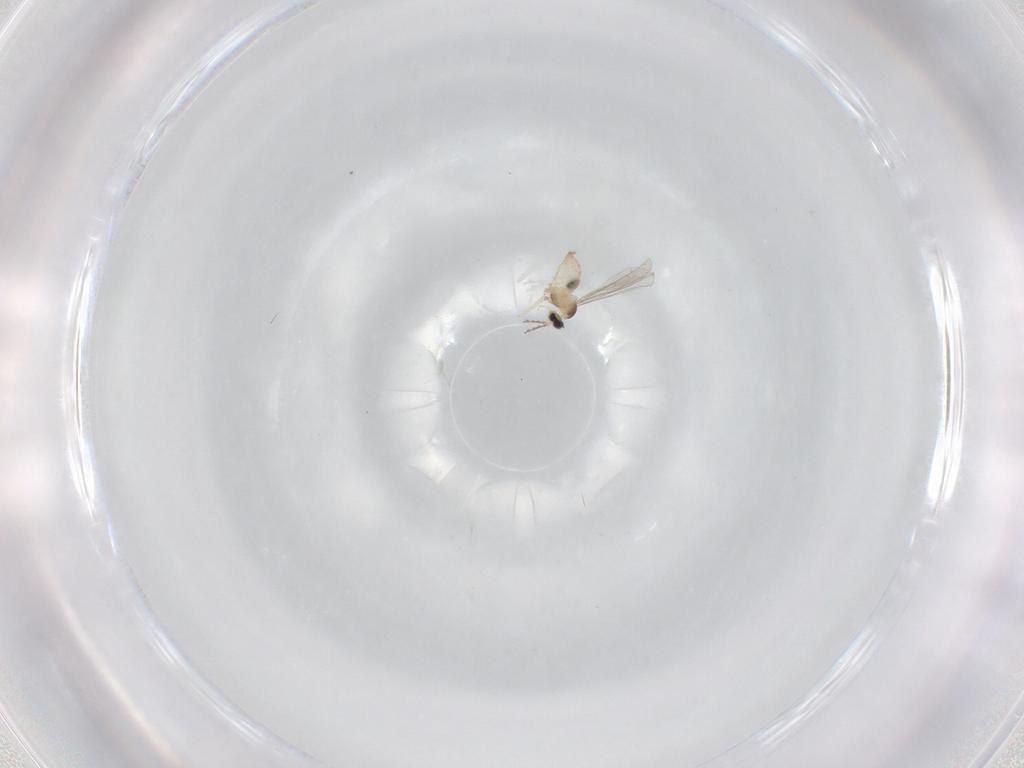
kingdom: Animalia
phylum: Arthropoda
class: Insecta
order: Diptera
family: Cecidomyiidae
